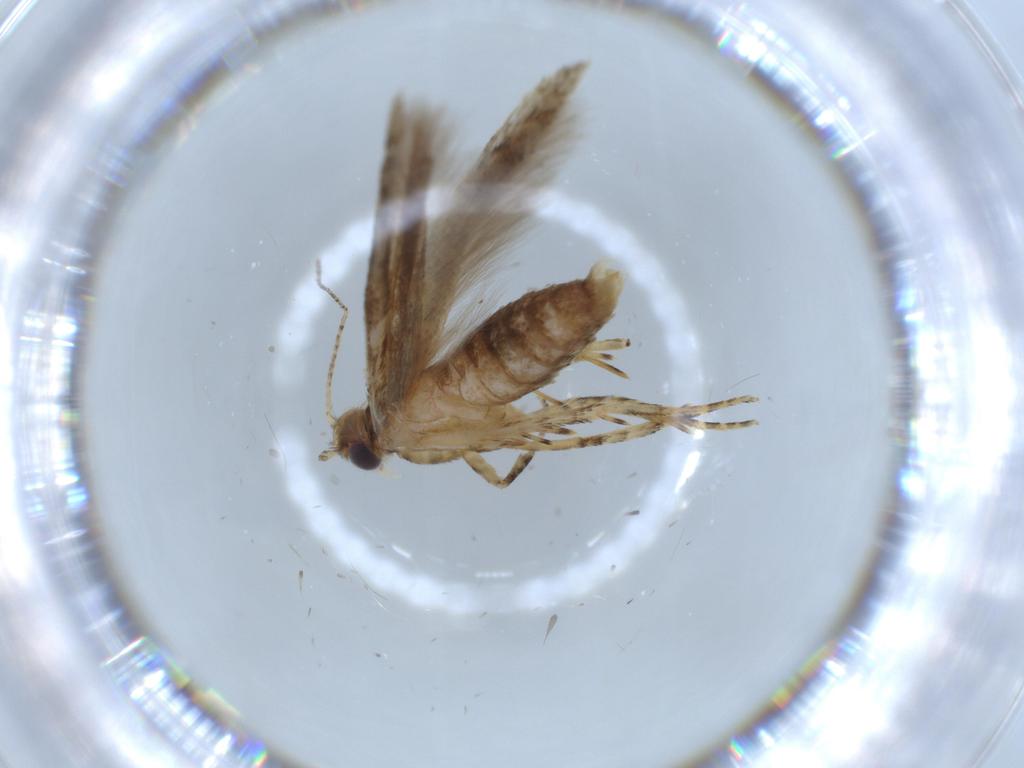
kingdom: Animalia
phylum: Arthropoda
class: Insecta
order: Lepidoptera
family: Gelechiidae
